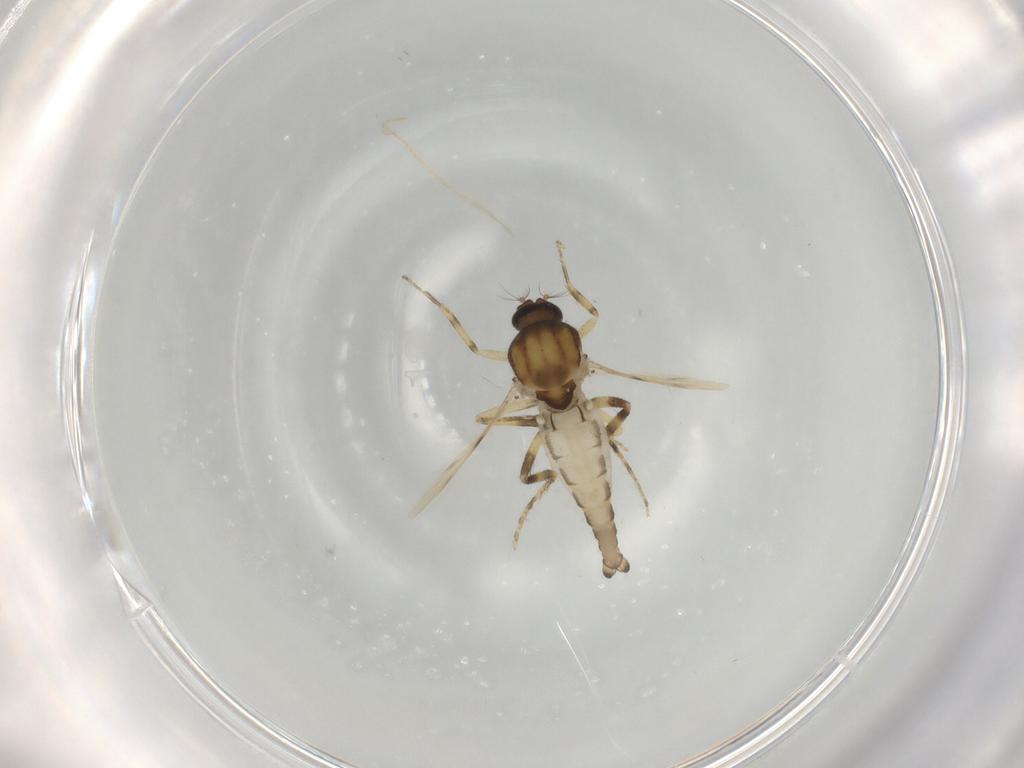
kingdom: Animalia
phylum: Arthropoda
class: Insecta
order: Diptera
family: Ceratopogonidae
